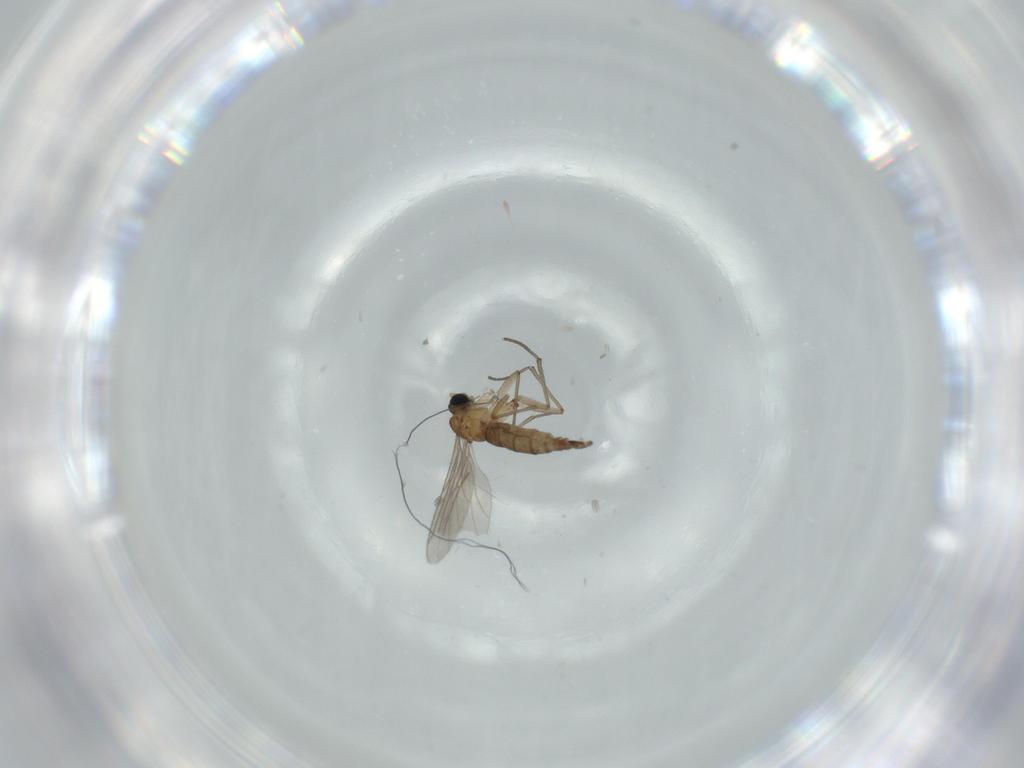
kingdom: Animalia
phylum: Arthropoda
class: Insecta
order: Diptera
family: Sciaridae
